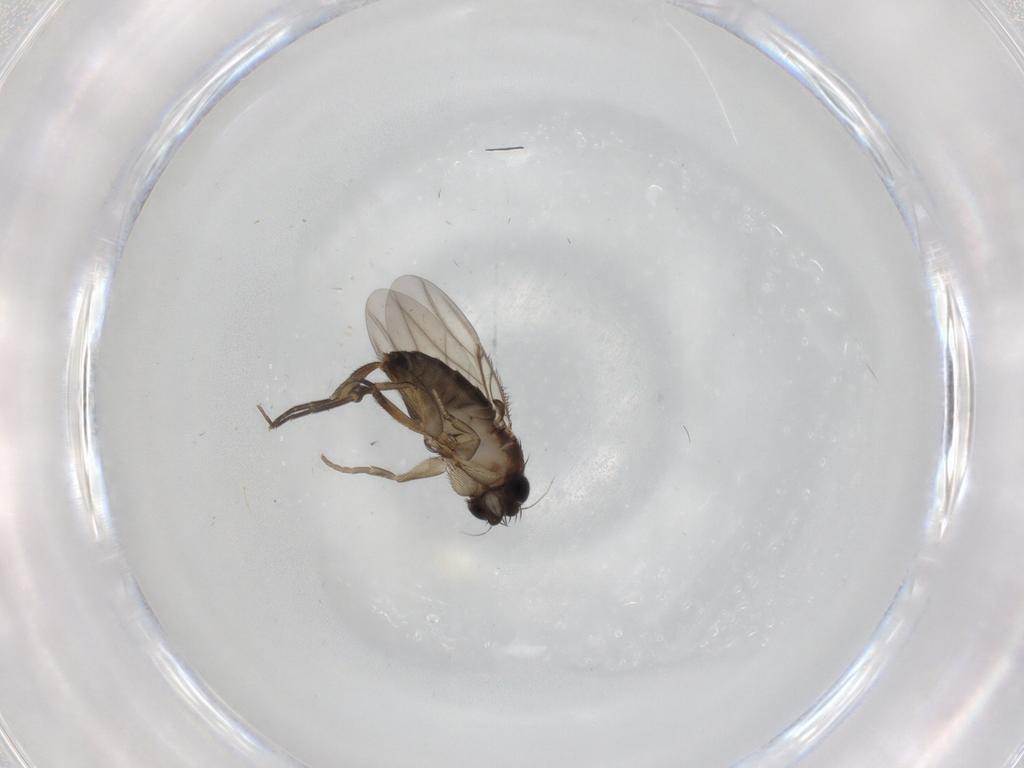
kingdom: Animalia
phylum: Arthropoda
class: Insecta
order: Diptera
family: Phoridae
